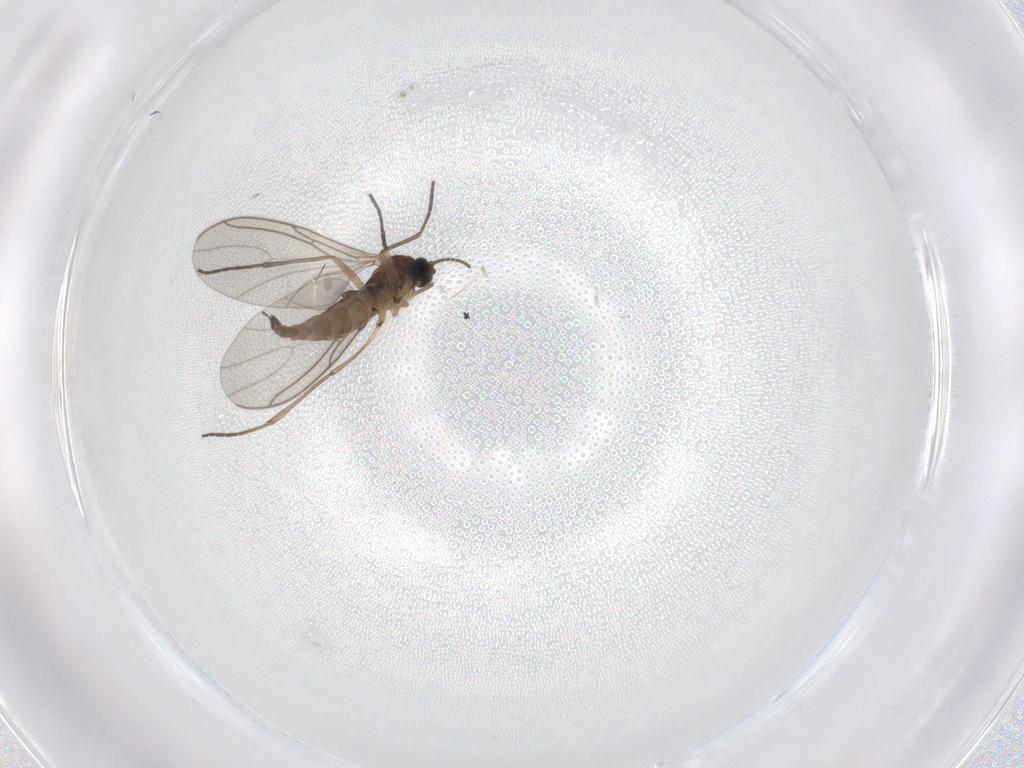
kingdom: Animalia
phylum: Arthropoda
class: Insecta
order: Diptera
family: Sciaridae
